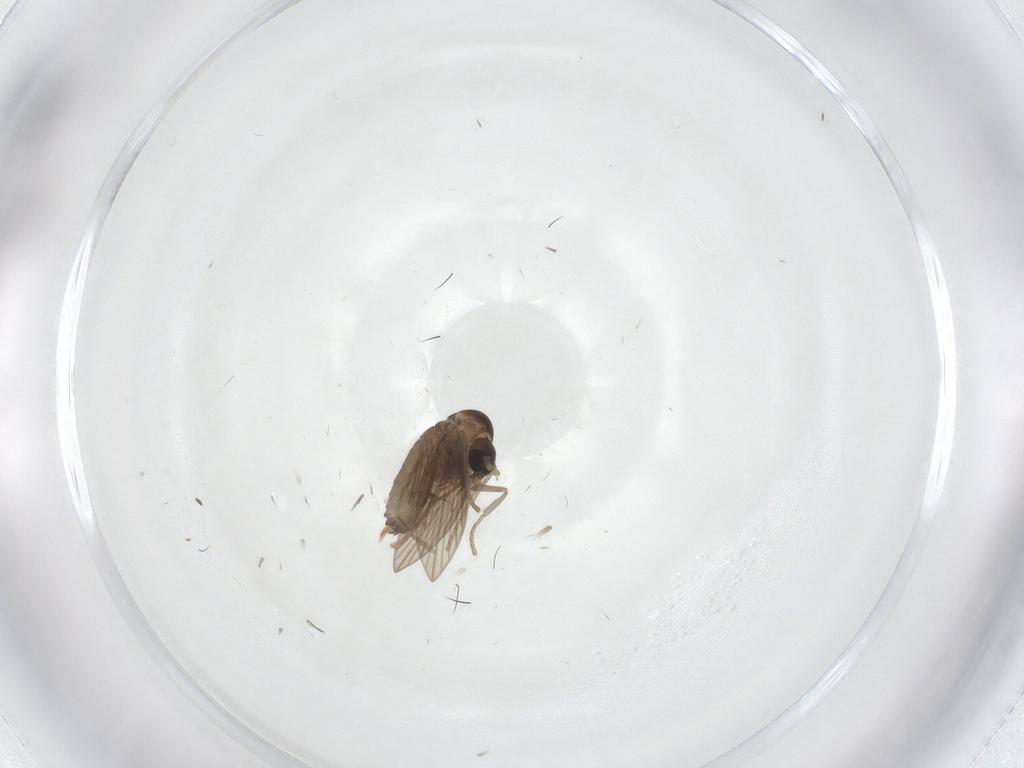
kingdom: Animalia
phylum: Arthropoda
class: Insecta
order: Diptera
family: Psychodidae
